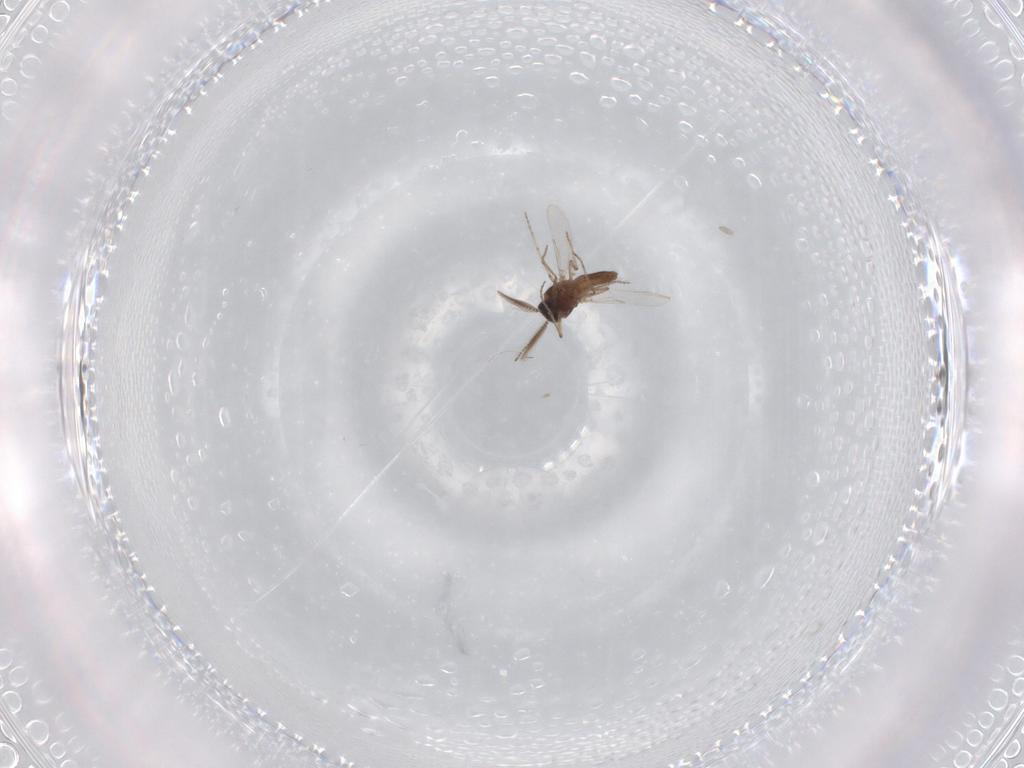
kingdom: Animalia
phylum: Arthropoda
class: Insecta
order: Diptera
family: Ceratopogonidae
